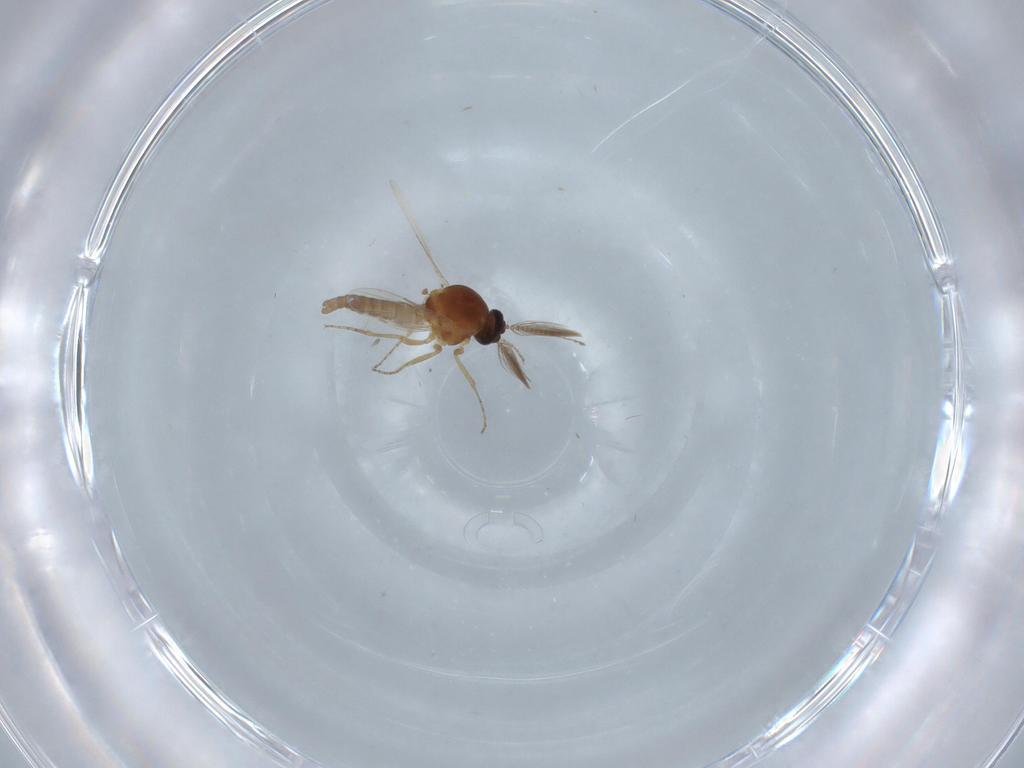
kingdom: Animalia
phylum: Arthropoda
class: Insecta
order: Diptera
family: Ceratopogonidae
